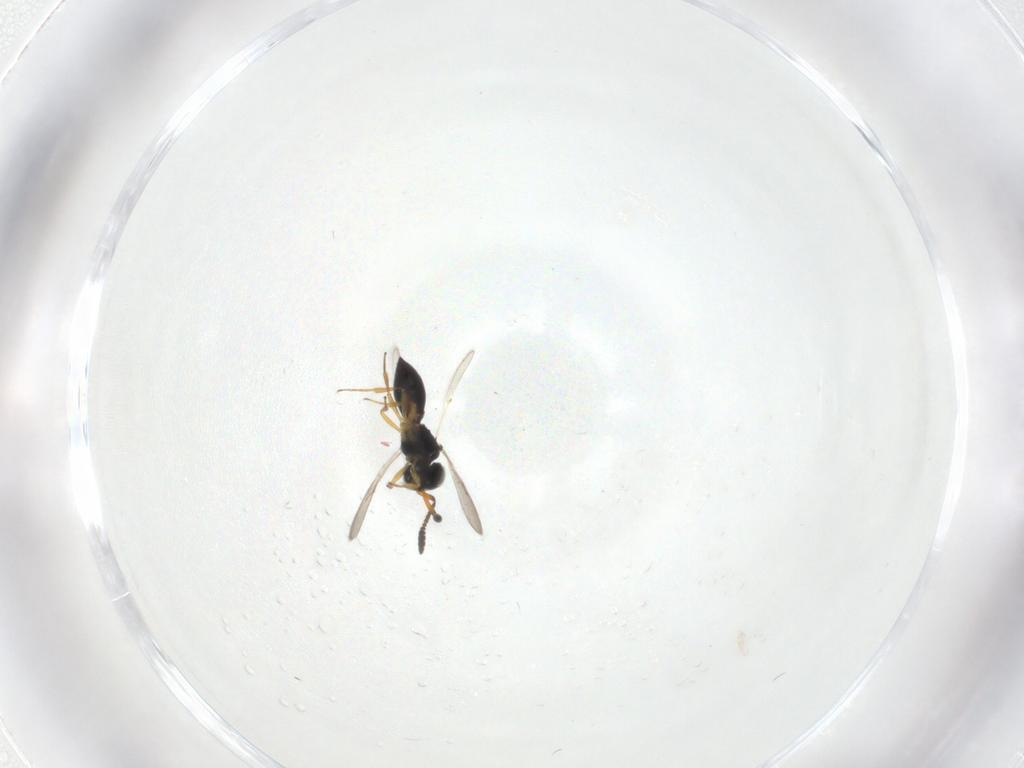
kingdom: Animalia
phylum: Arthropoda
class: Insecta
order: Hymenoptera
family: Scelionidae
